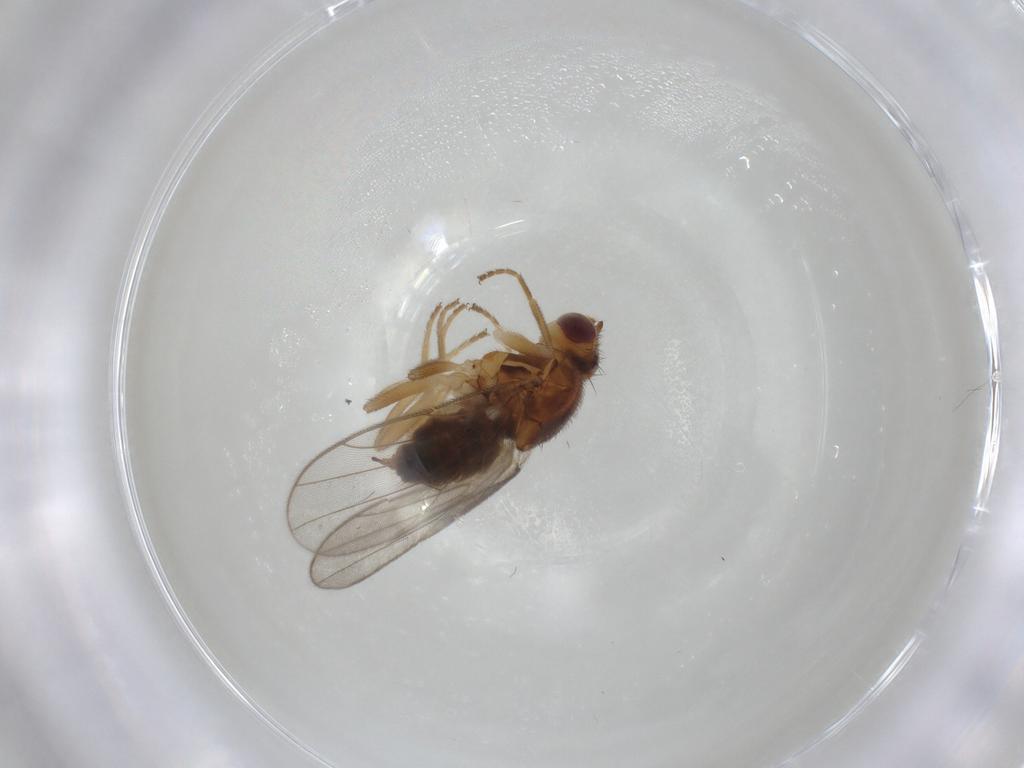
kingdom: Animalia
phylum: Arthropoda
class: Insecta
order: Diptera
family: Chloropidae
